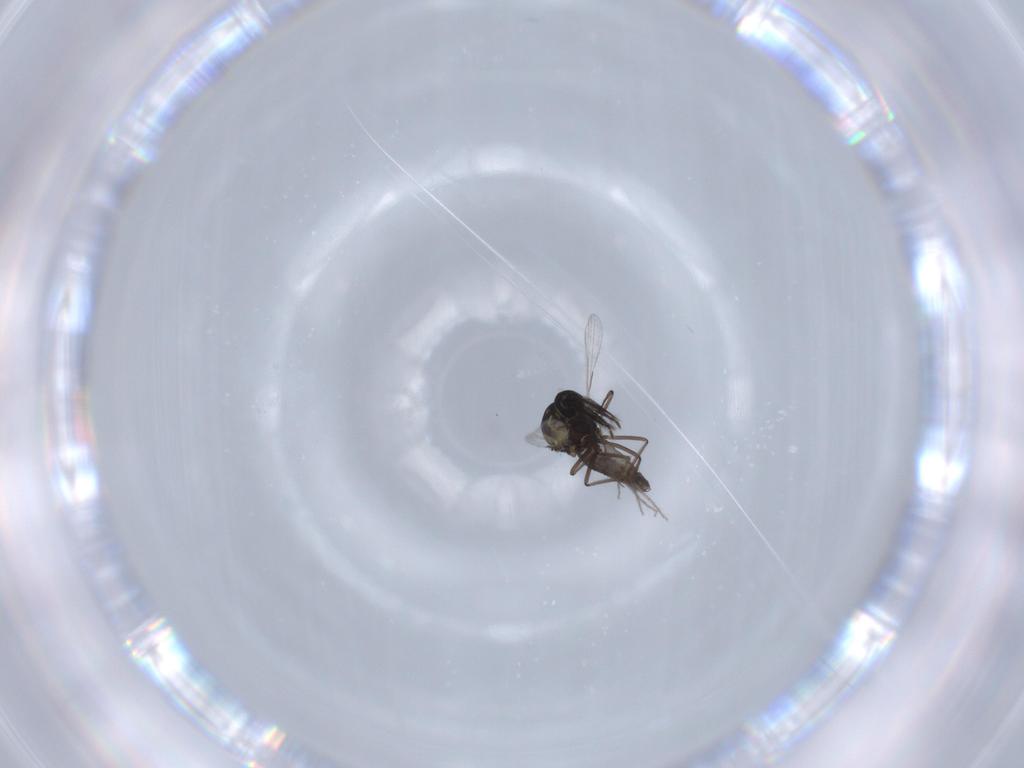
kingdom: Animalia
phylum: Arthropoda
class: Insecta
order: Diptera
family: Ceratopogonidae
